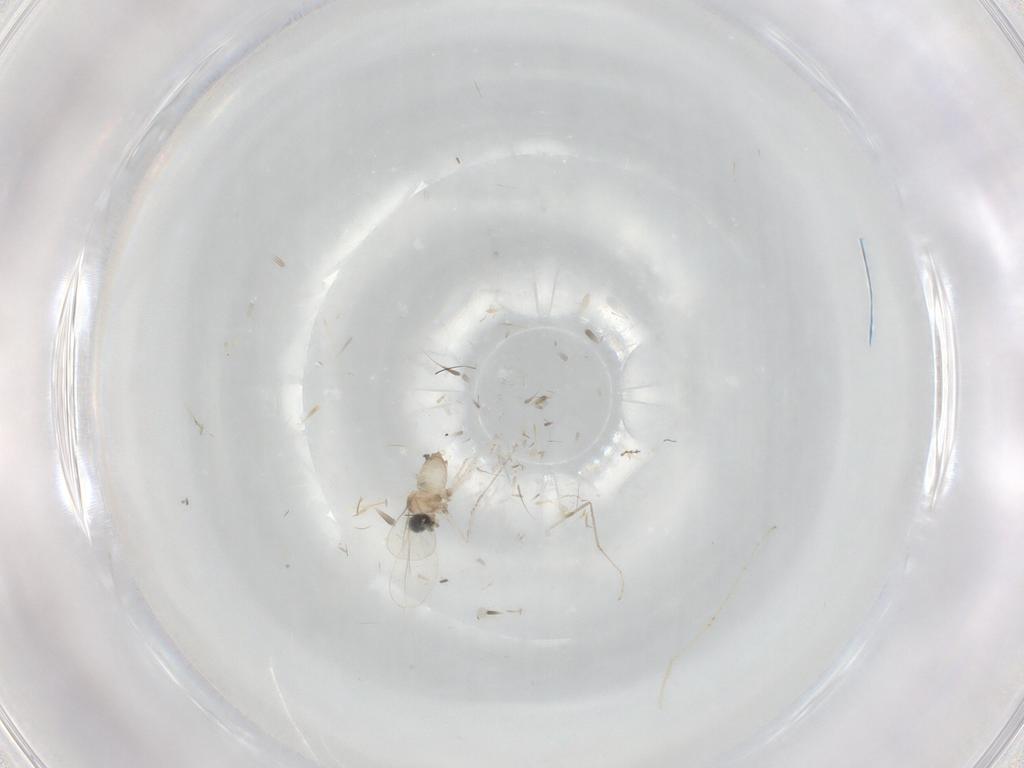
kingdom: Animalia
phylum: Arthropoda
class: Insecta
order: Diptera
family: Cecidomyiidae
